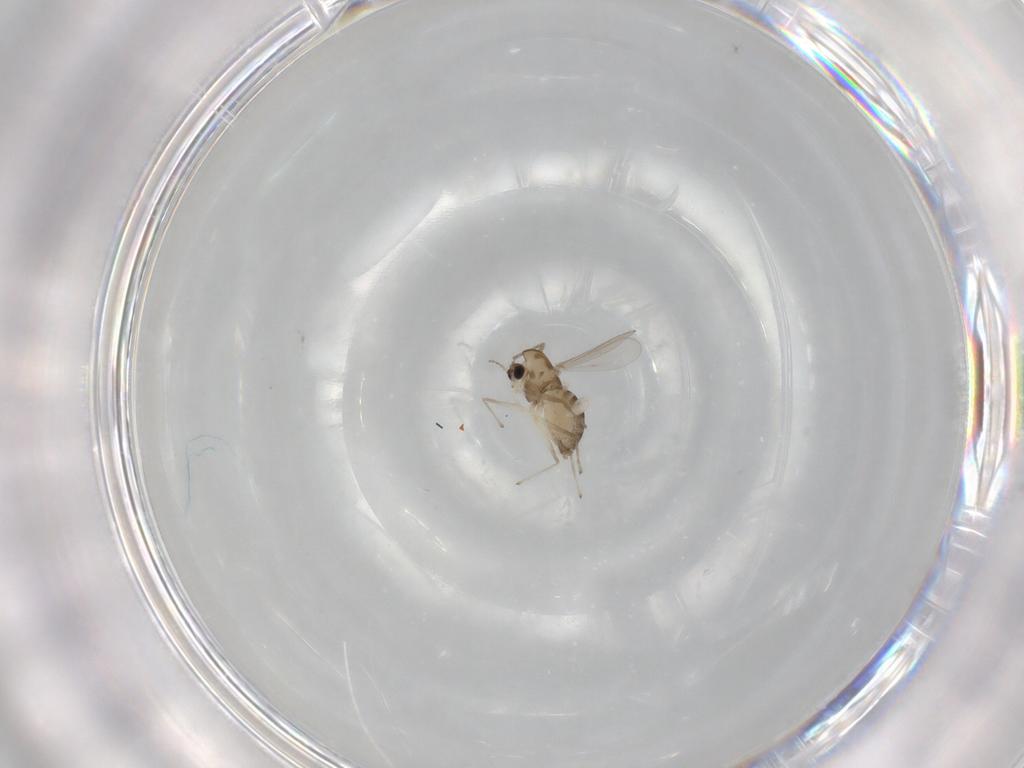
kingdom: Animalia
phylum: Arthropoda
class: Insecta
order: Diptera
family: Chironomidae
